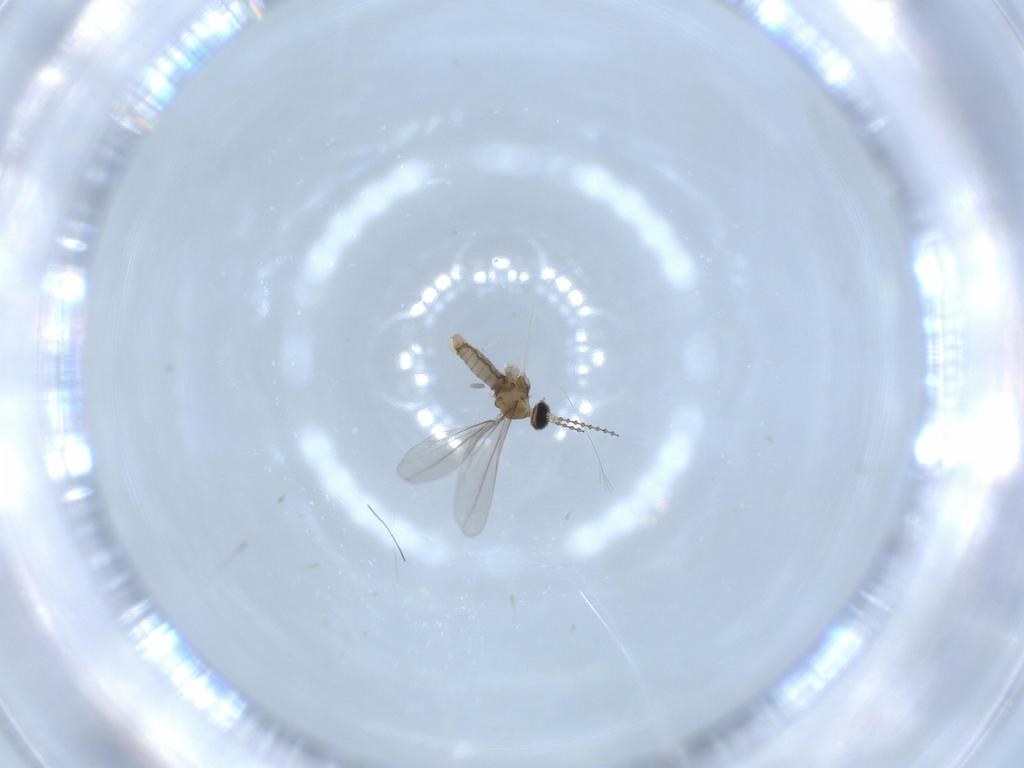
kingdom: Animalia
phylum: Arthropoda
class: Insecta
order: Diptera
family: Cecidomyiidae
